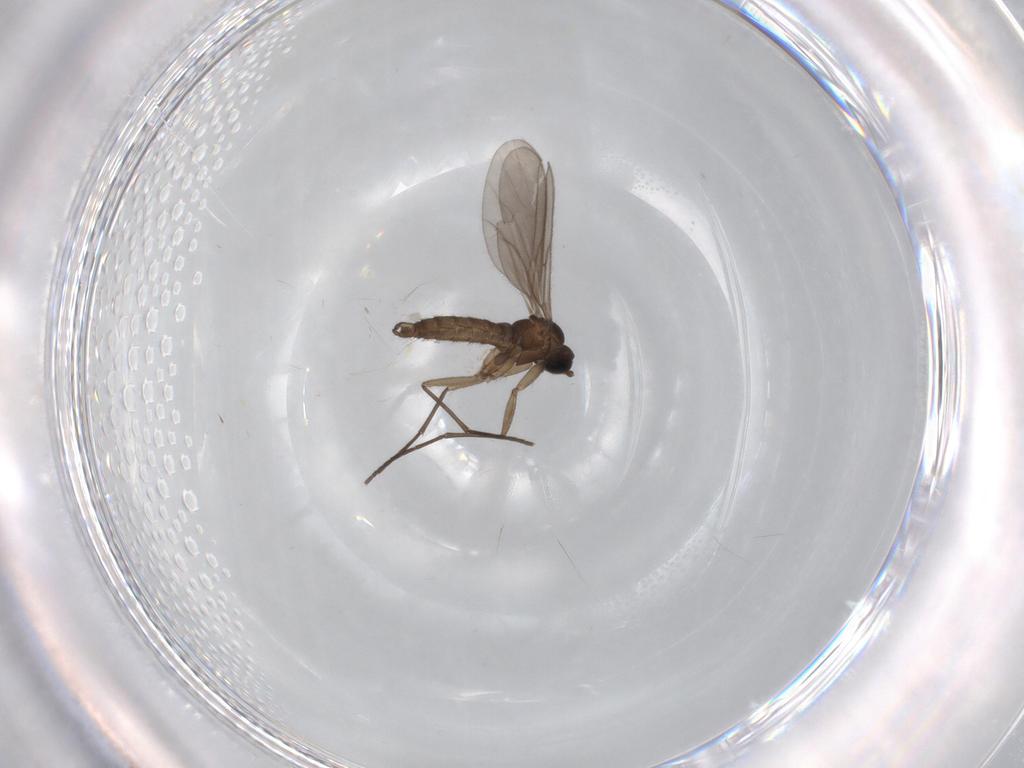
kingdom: Animalia
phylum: Arthropoda
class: Insecta
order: Diptera
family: Sciaridae
